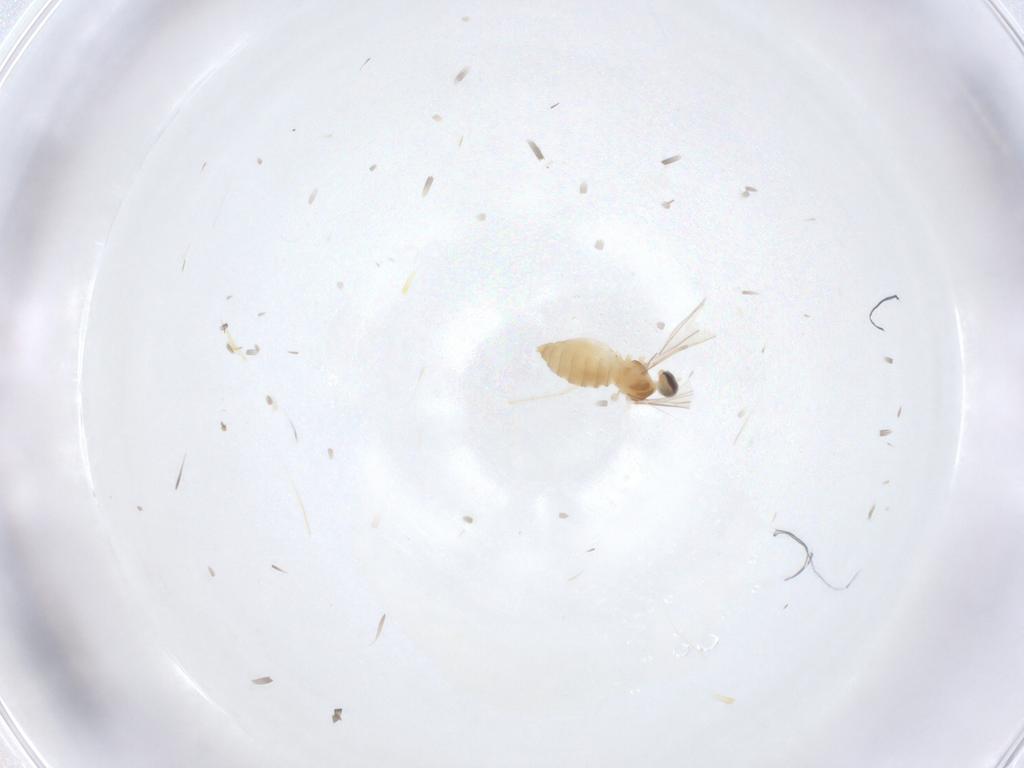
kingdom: Animalia
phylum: Arthropoda
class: Insecta
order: Diptera
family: Cecidomyiidae
